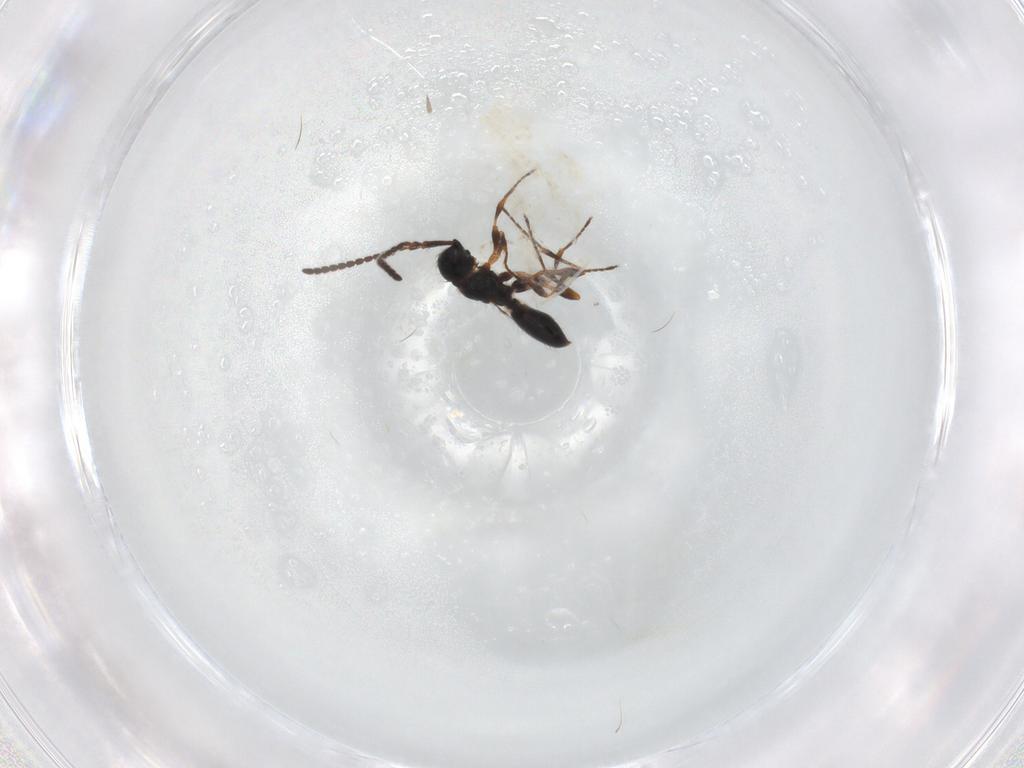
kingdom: Animalia
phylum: Arthropoda
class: Insecta
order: Hymenoptera
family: Diapriidae
